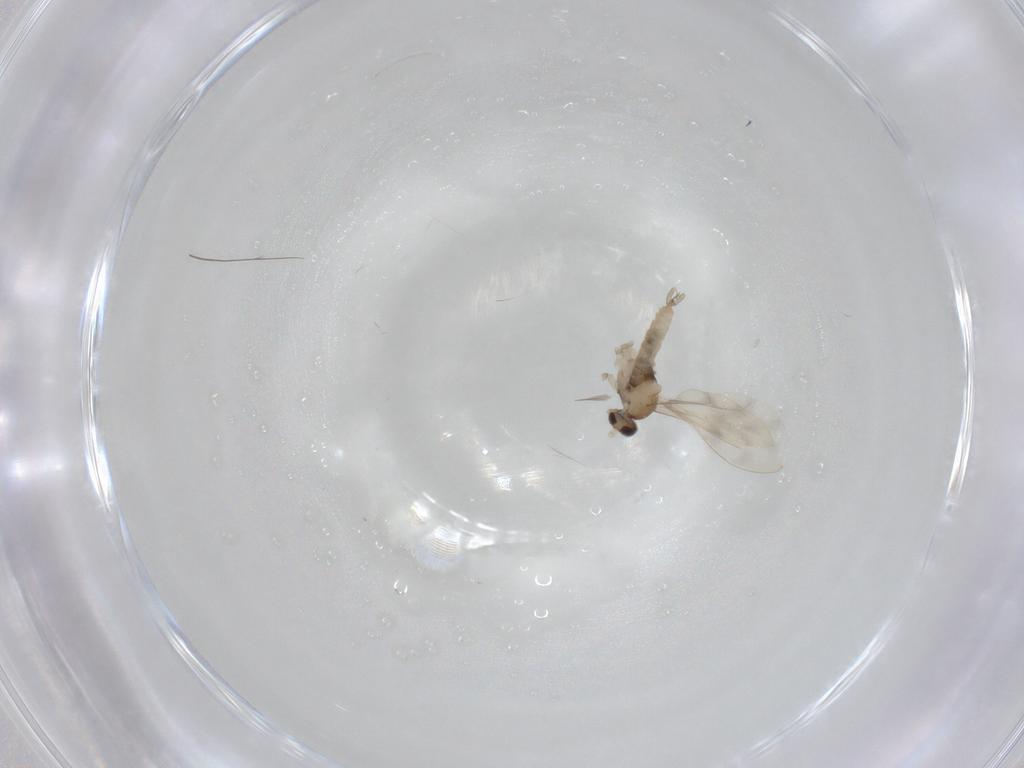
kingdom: Animalia
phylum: Arthropoda
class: Insecta
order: Diptera
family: Cecidomyiidae
